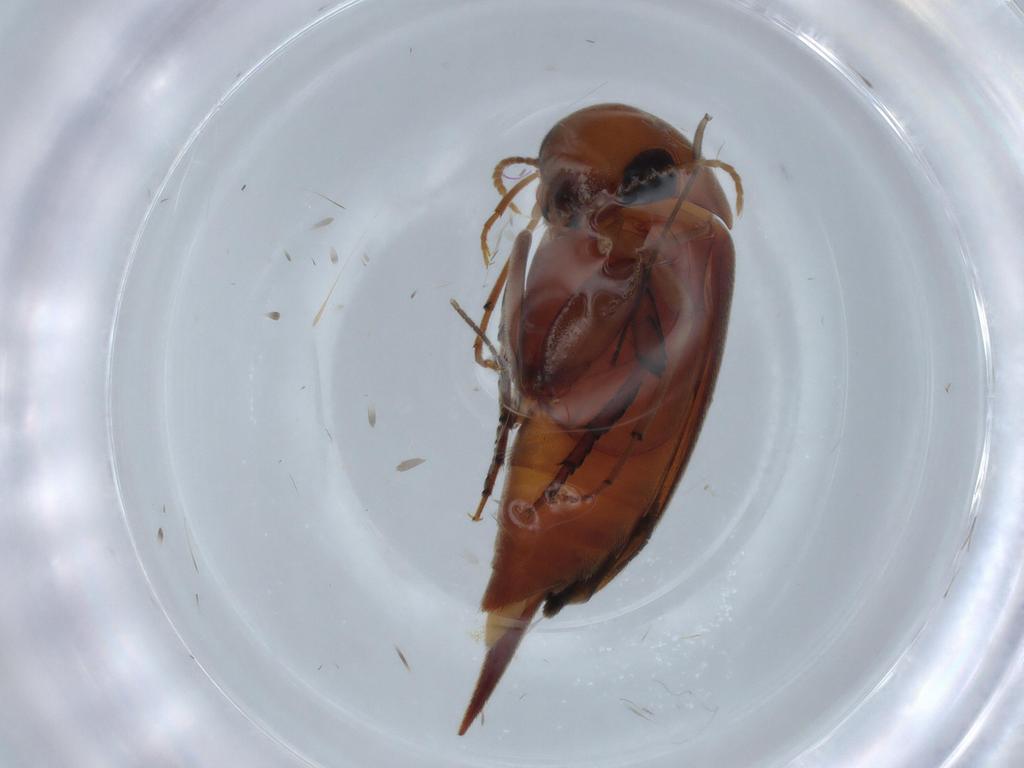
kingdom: Animalia
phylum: Arthropoda
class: Insecta
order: Coleoptera
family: Mordellidae
